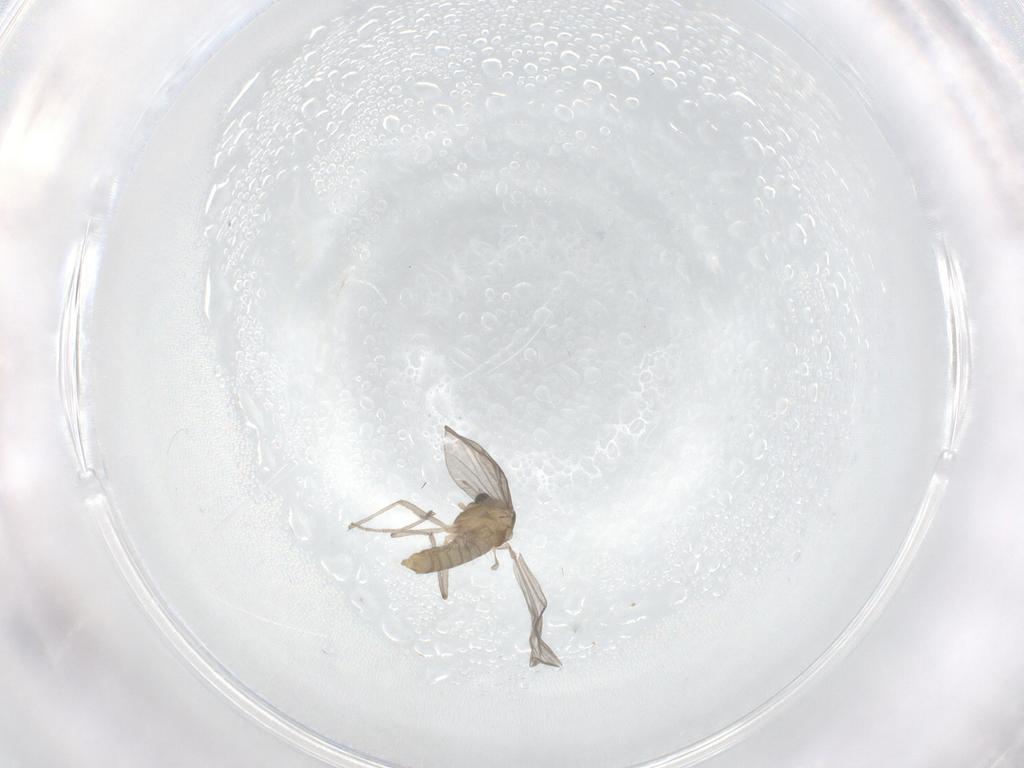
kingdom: Animalia
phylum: Arthropoda
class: Insecta
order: Diptera
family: Chironomidae
